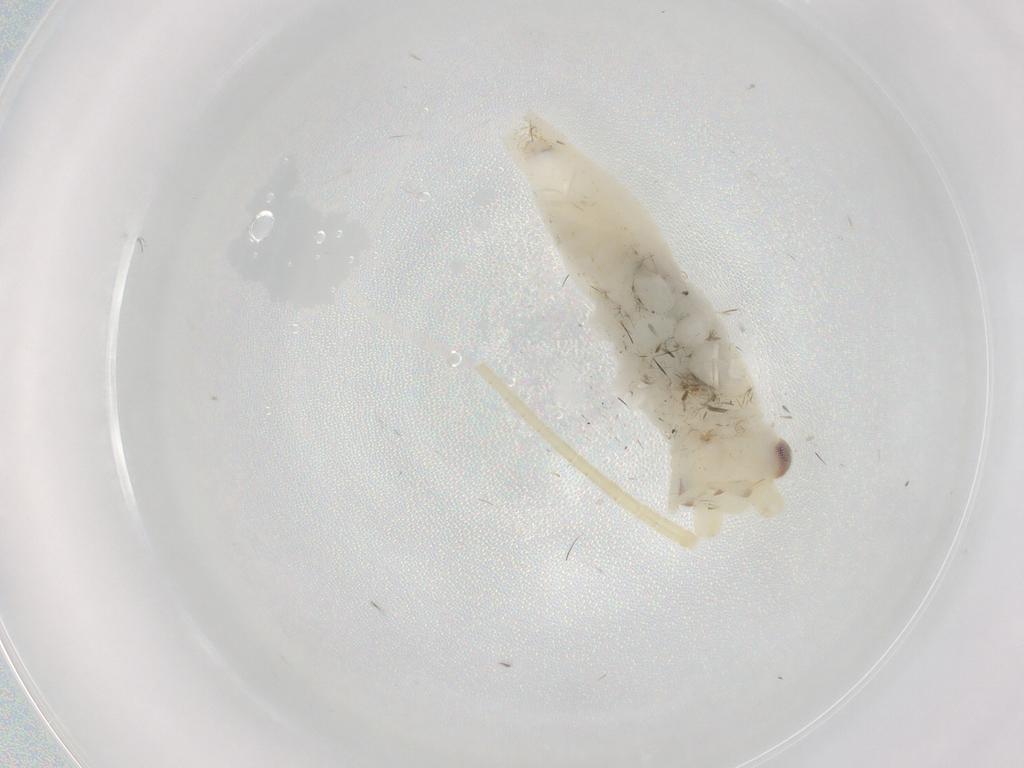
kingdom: Animalia
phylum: Arthropoda
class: Insecta
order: Orthoptera
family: Trigonidiidae
